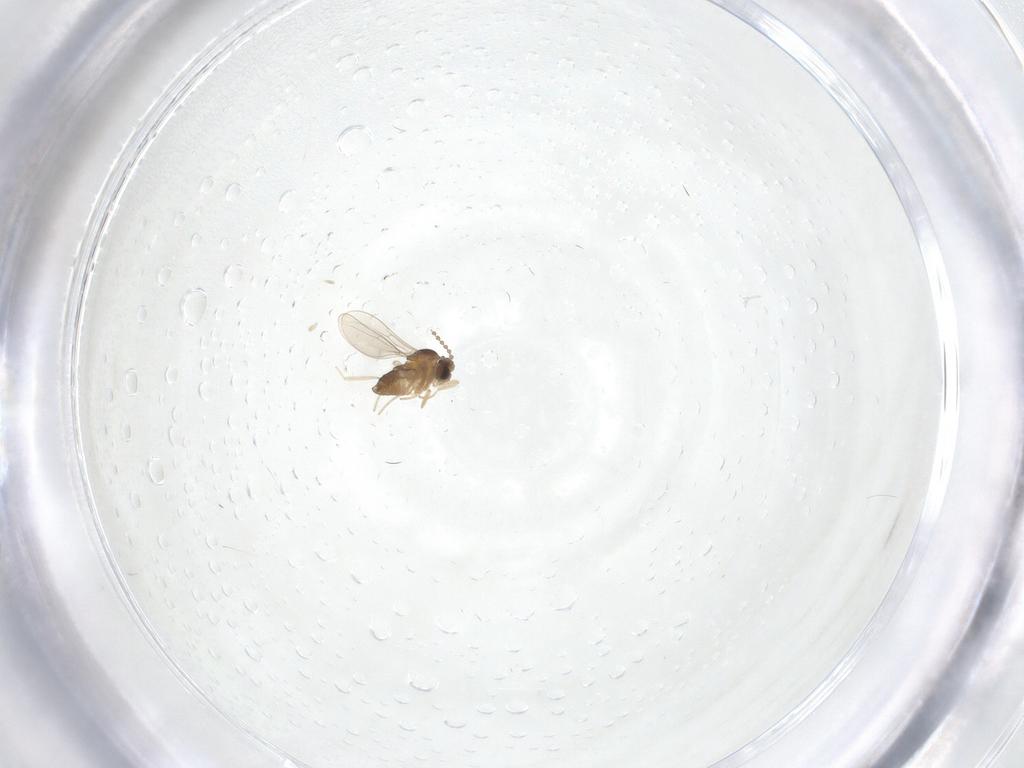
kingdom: Animalia
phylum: Arthropoda
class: Insecta
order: Diptera
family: Cecidomyiidae
